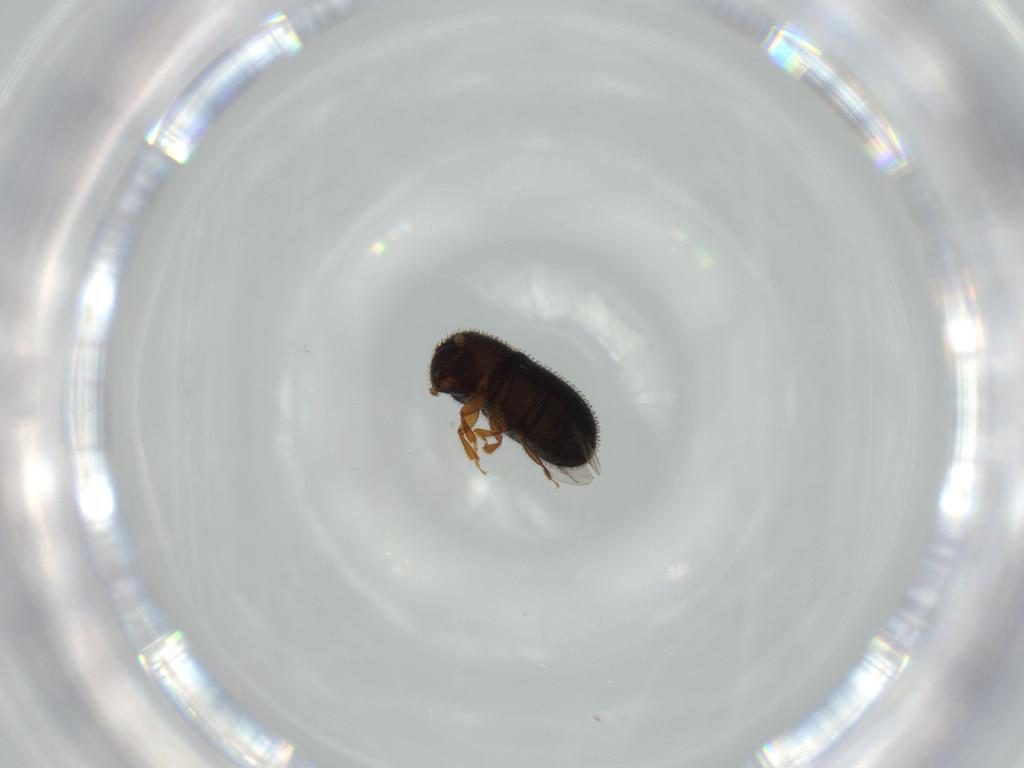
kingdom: Animalia
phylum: Arthropoda
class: Insecta
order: Coleoptera
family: Curculionidae
